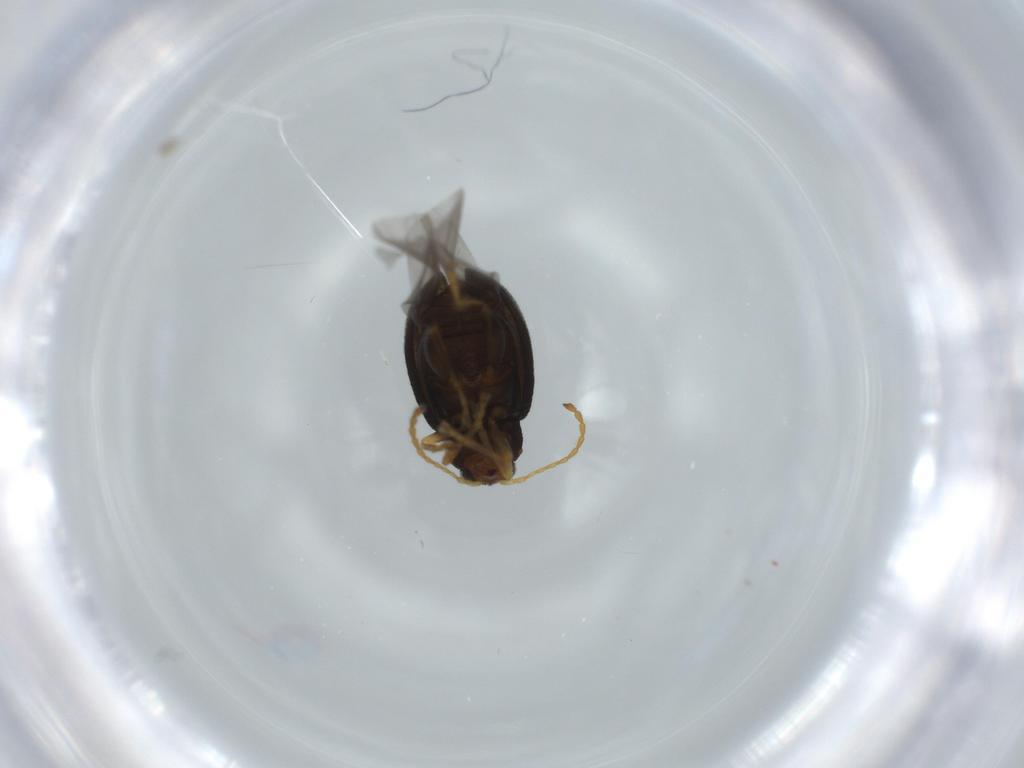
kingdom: Animalia
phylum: Arthropoda
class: Insecta
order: Coleoptera
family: Chrysomelidae
